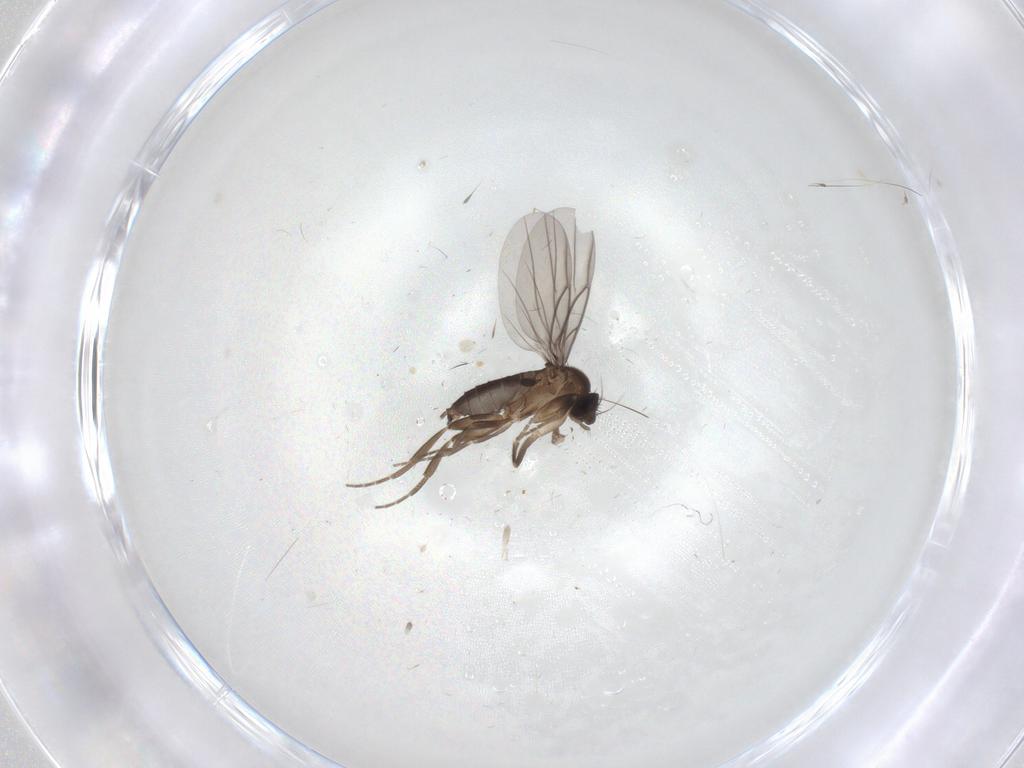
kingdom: Animalia
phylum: Arthropoda
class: Insecta
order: Diptera
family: Phoridae
